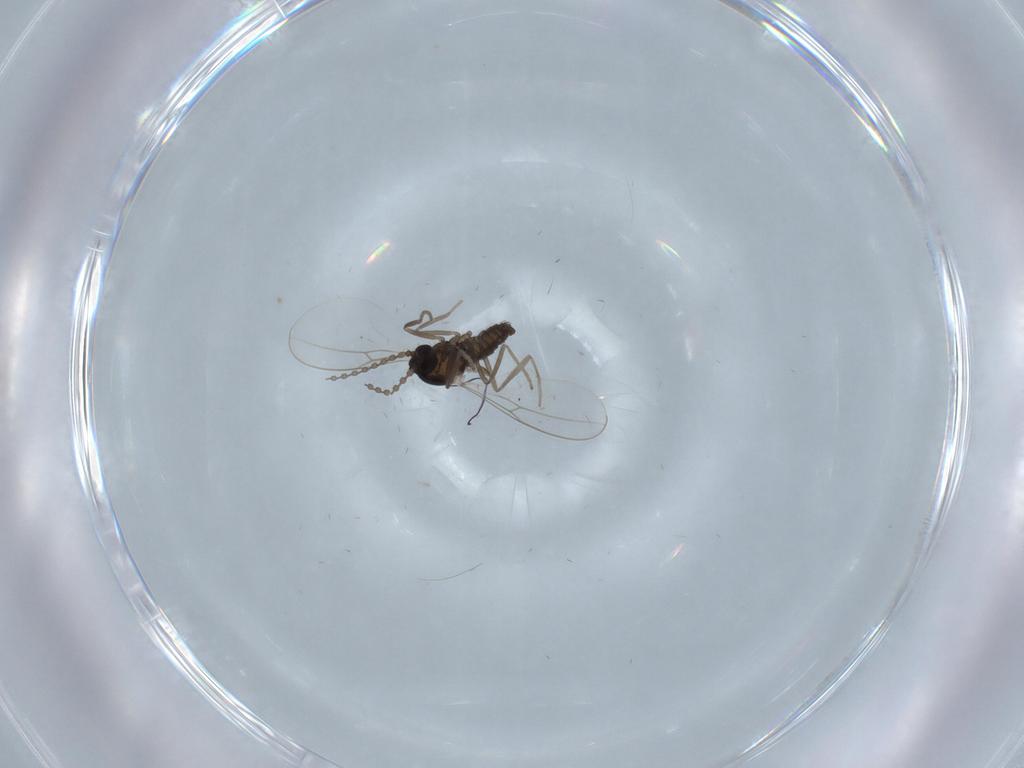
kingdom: Animalia
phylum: Arthropoda
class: Insecta
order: Diptera
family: Cecidomyiidae
